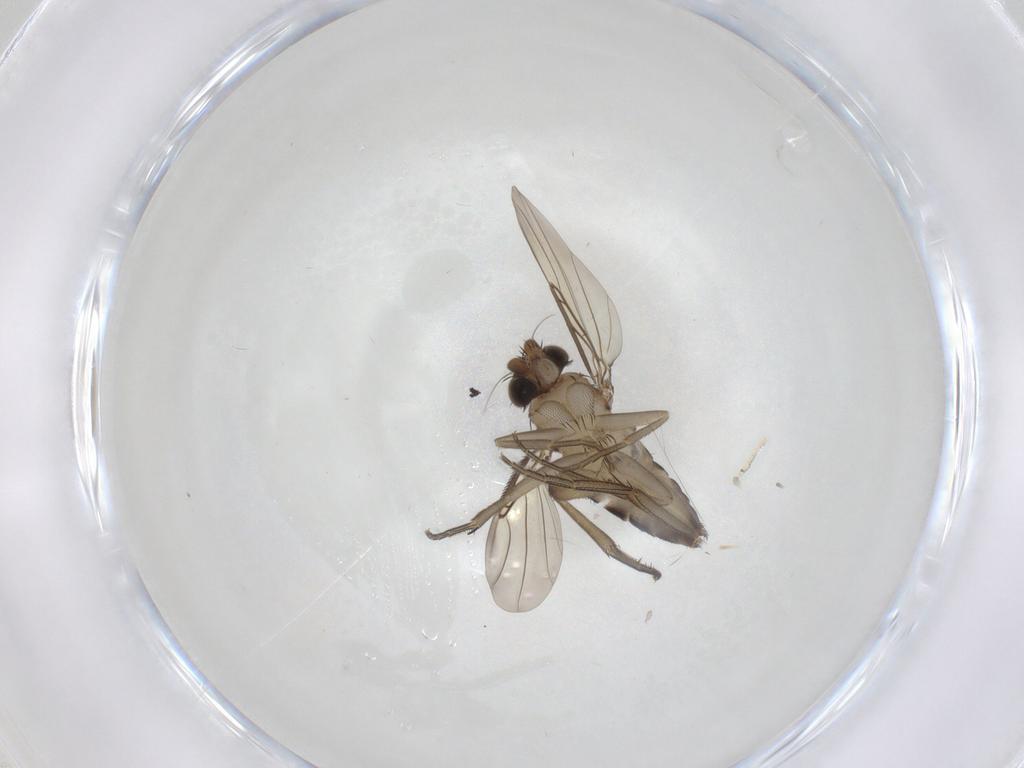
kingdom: Animalia
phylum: Arthropoda
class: Insecta
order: Diptera
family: Phoridae
